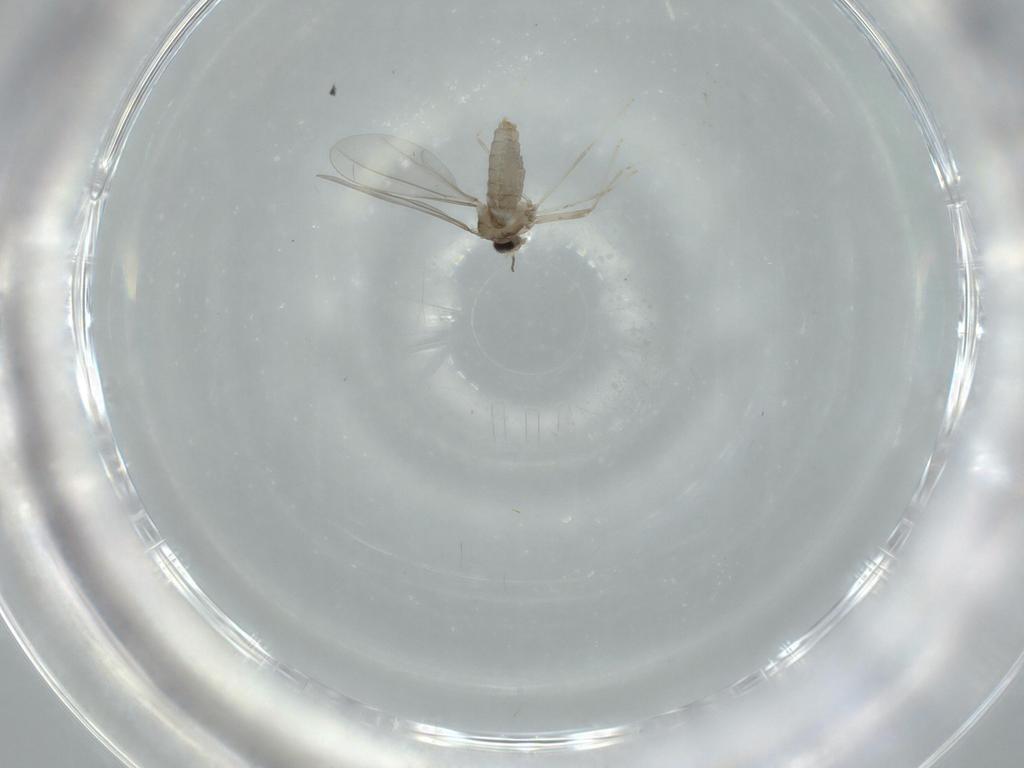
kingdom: Animalia
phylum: Arthropoda
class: Insecta
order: Diptera
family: Cecidomyiidae
